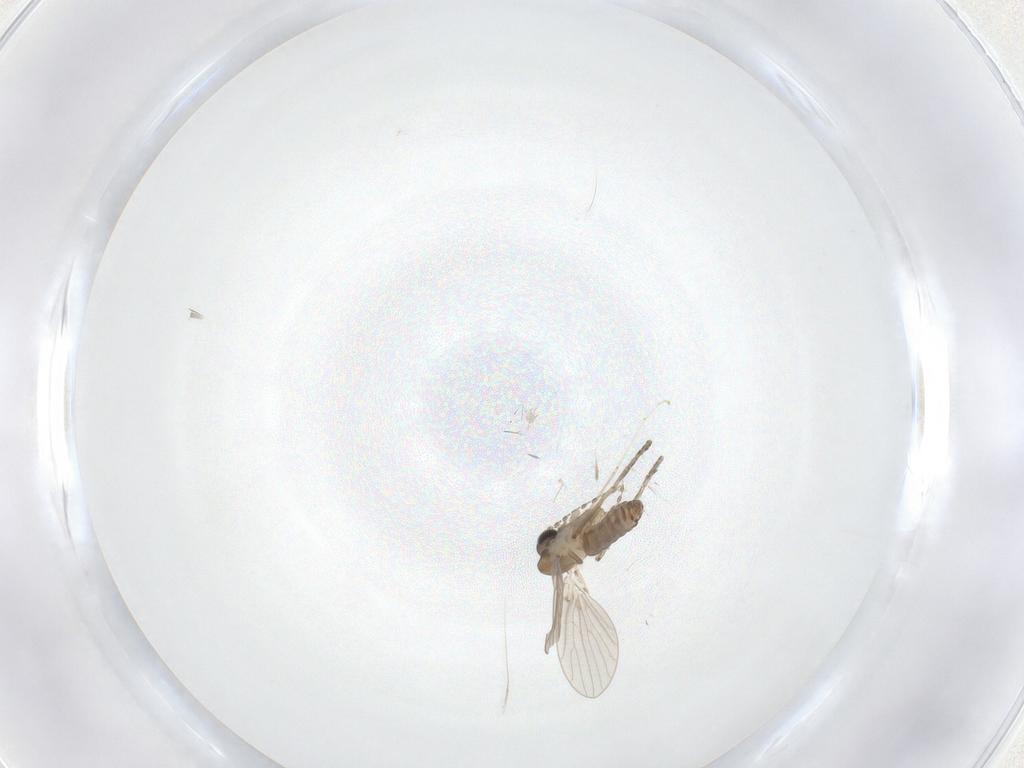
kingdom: Animalia
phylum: Arthropoda
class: Insecta
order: Diptera
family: Psychodidae
